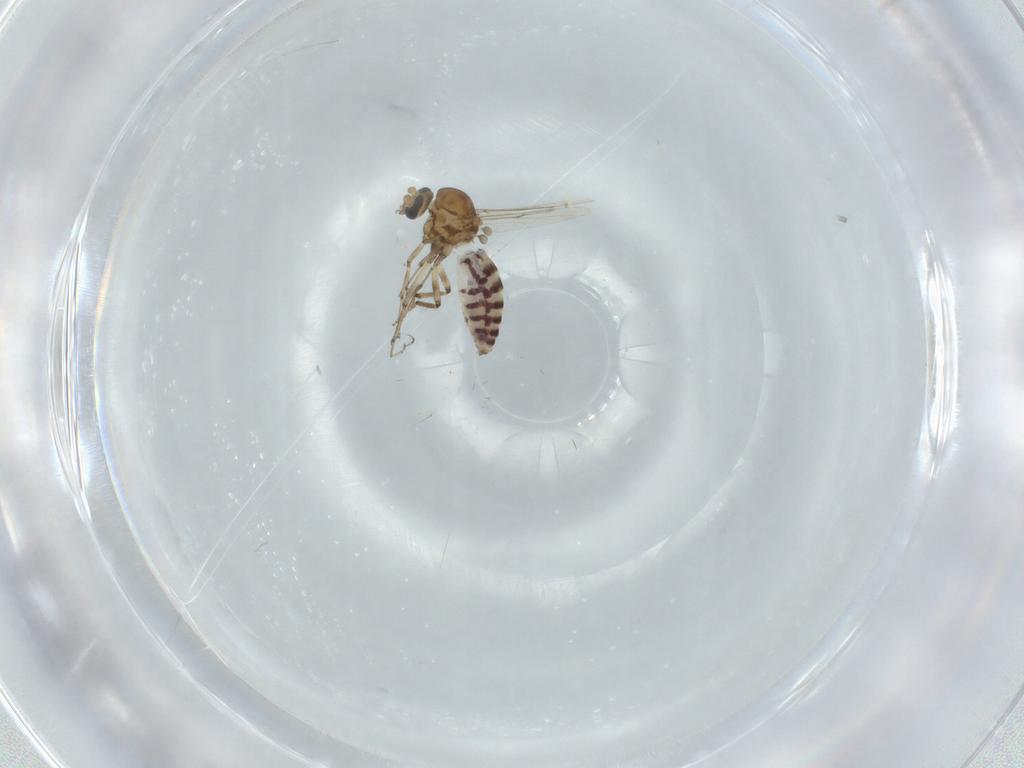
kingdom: Animalia
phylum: Arthropoda
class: Insecta
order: Diptera
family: Ceratopogonidae
